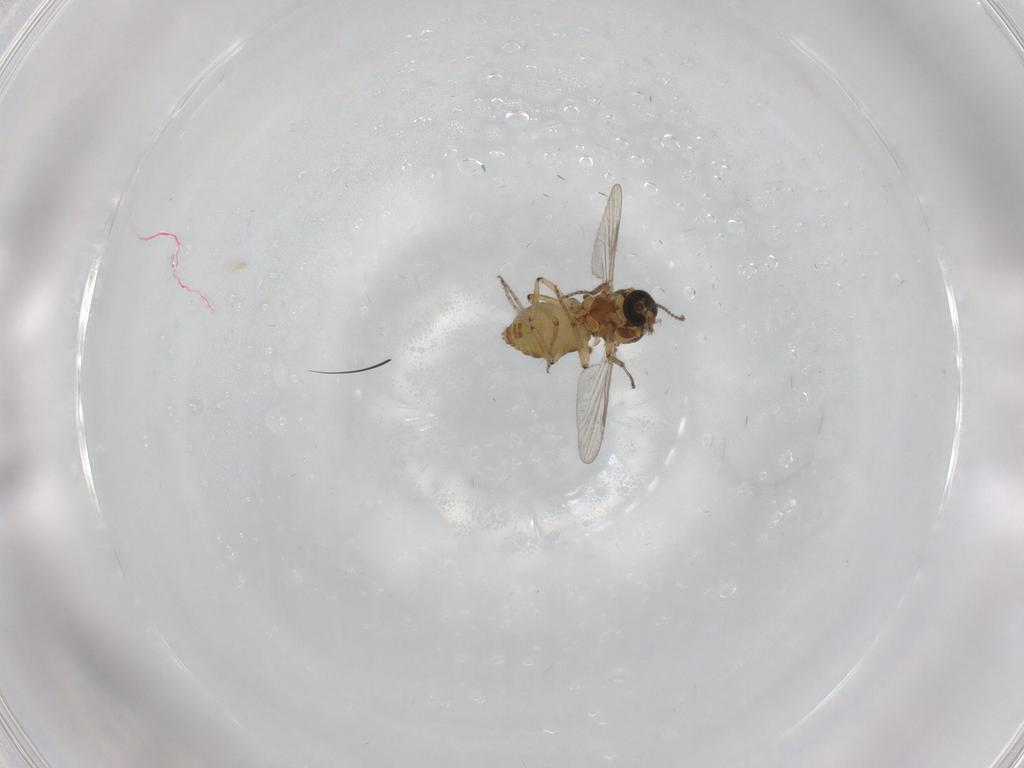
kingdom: Animalia
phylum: Arthropoda
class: Insecta
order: Diptera
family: Ceratopogonidae
